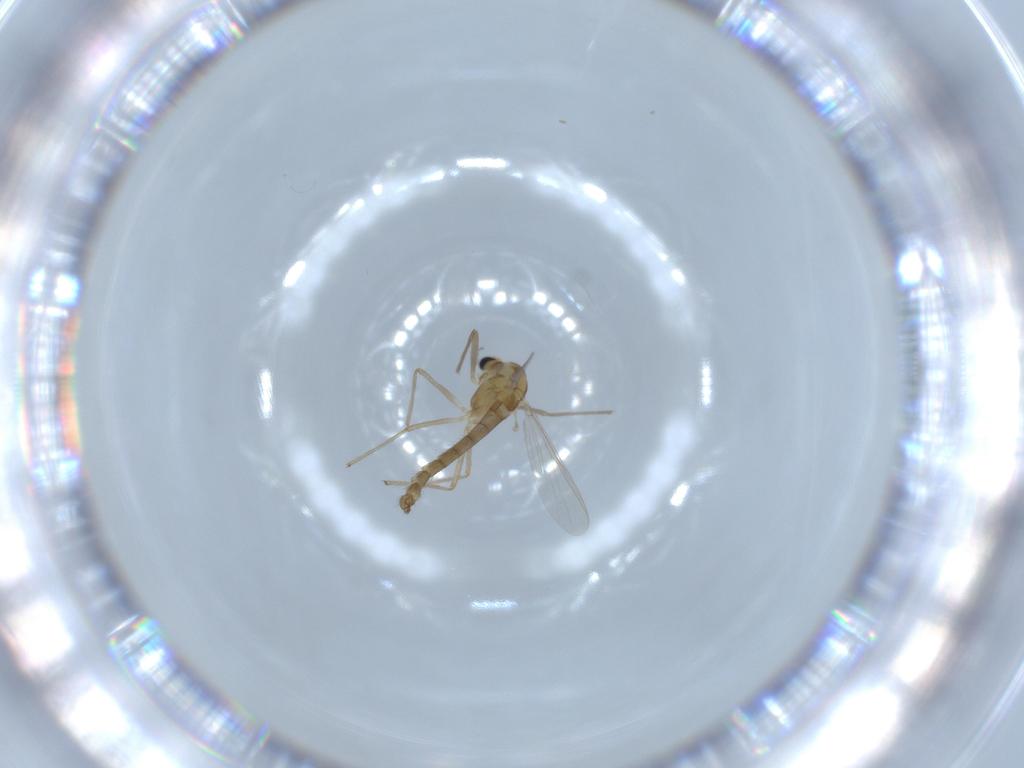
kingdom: Animalia
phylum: Arthropoda
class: Insecta
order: Diptera
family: Chironomidae
